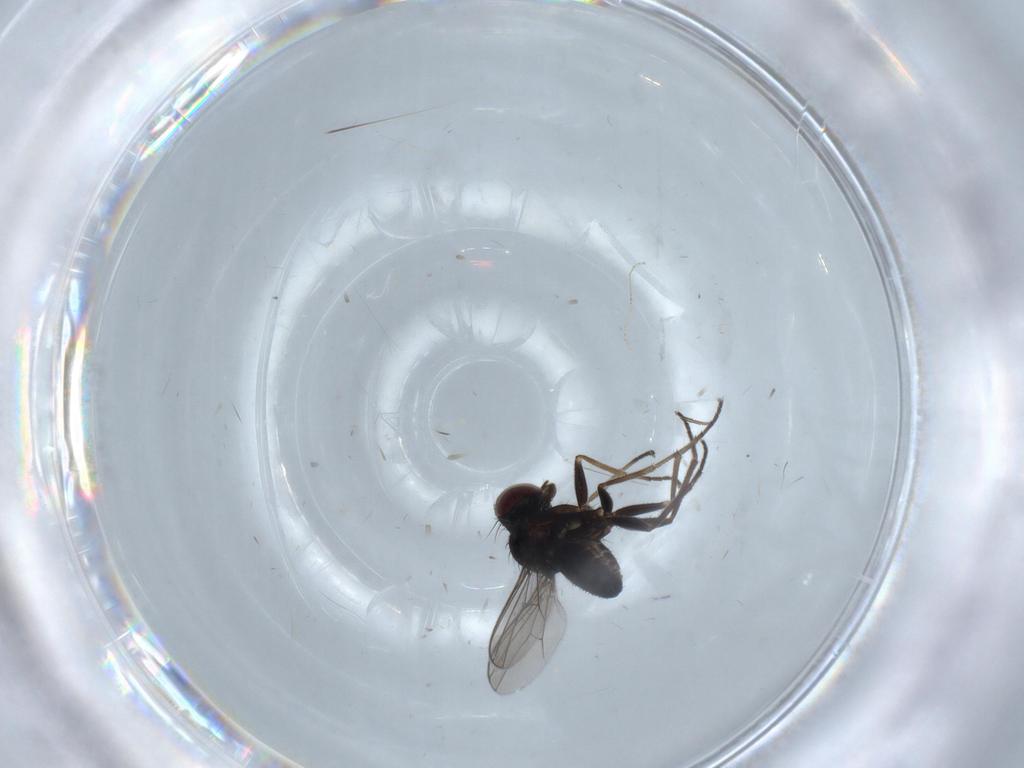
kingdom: Animalia
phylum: Arthropoda
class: Insecta
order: Diptera
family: Dolichopodidae
